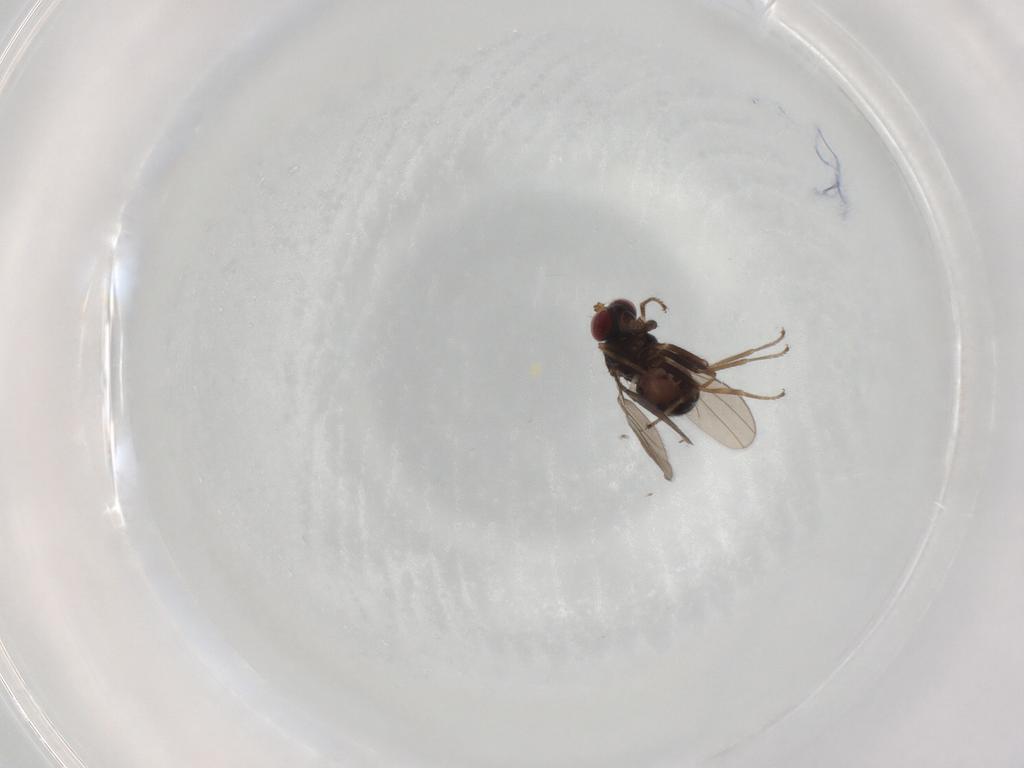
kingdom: Animalia
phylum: Arthropoda
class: Insecta
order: Diptera
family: Ephydridae
